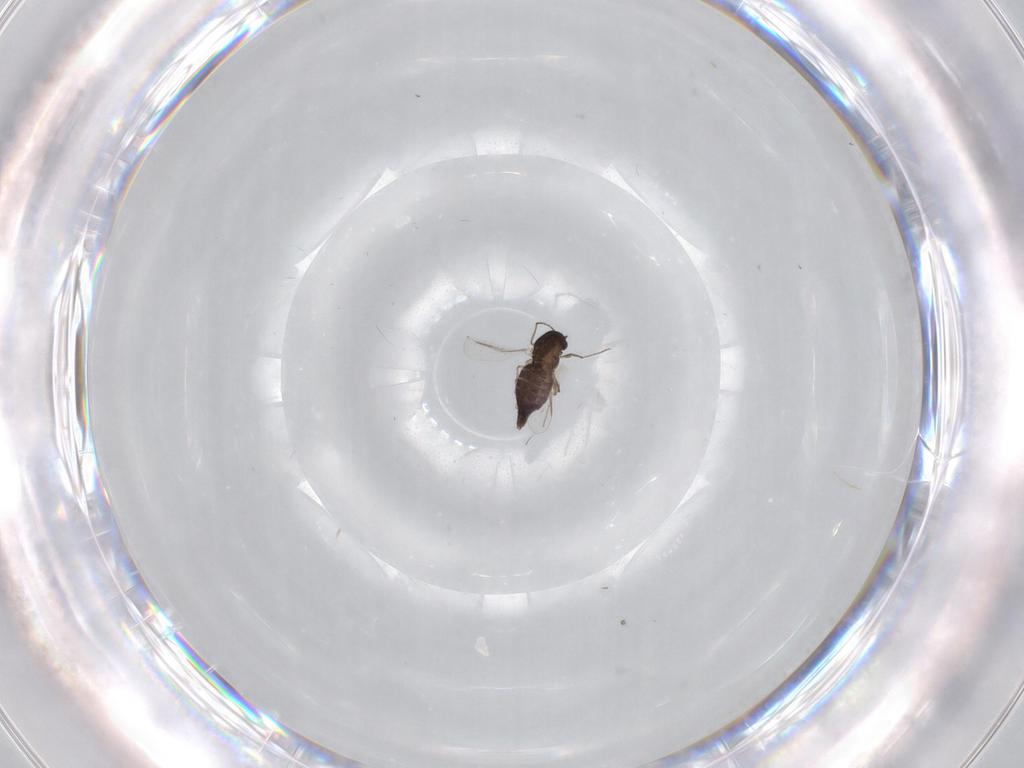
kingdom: Animalia
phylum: Arthropoda
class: Insecta
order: Diptera
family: Chironomidae
